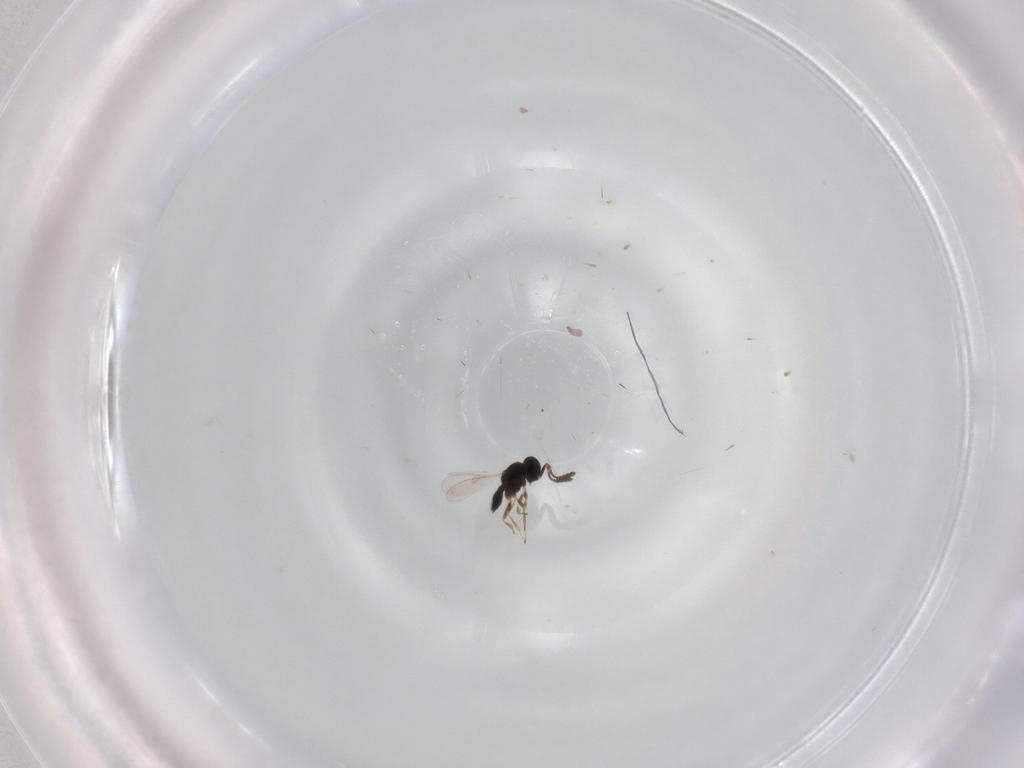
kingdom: Animalia
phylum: Arthropoda
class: Insecta
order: Hymenoptera
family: Scelionidae
